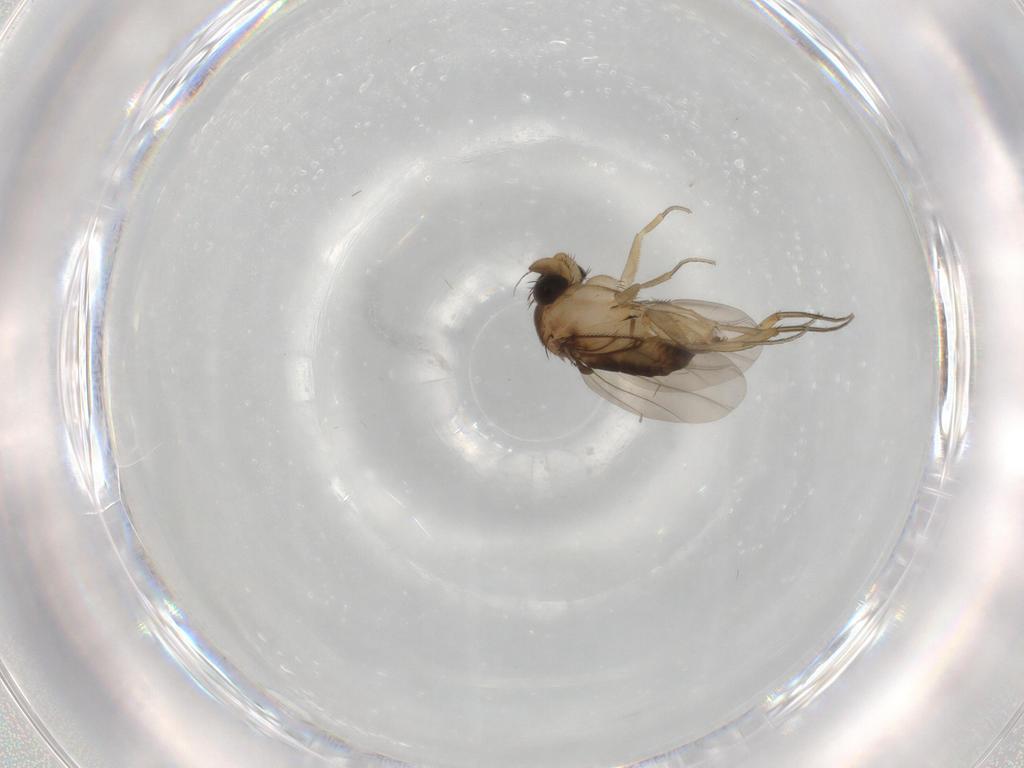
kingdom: Animalia
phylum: Arthropoda
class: Insecta
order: Diptera
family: Phoridae
